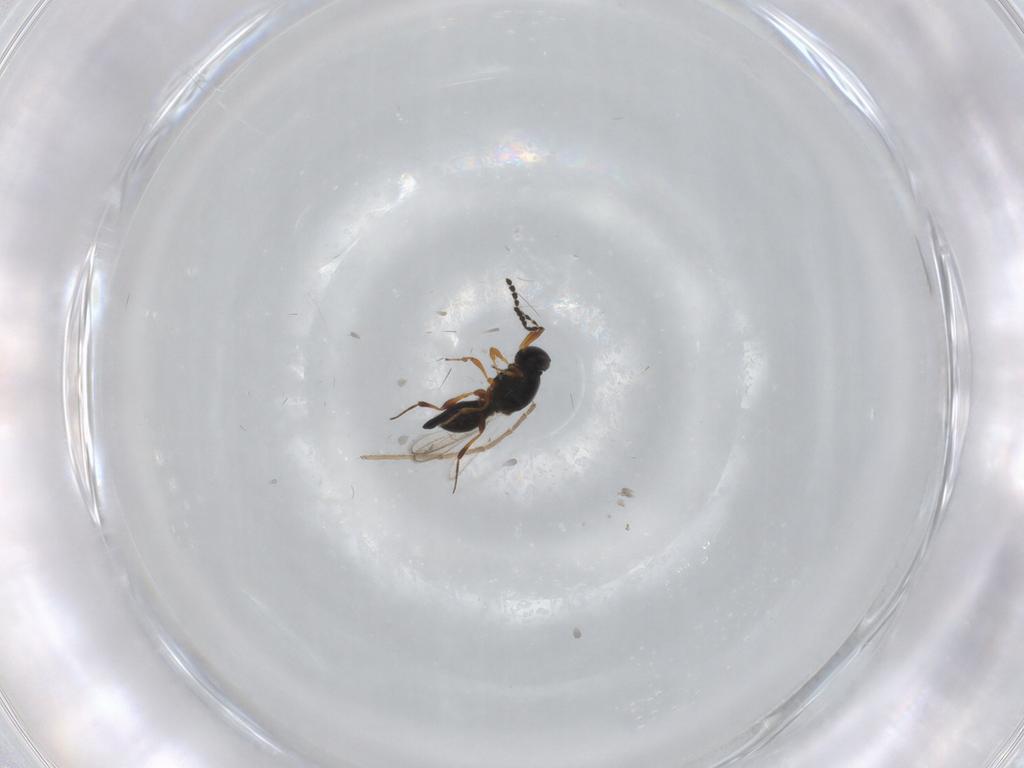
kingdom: Animalia
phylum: Arthropoda
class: Insecta
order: Hymenoptera
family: Platygastridae
